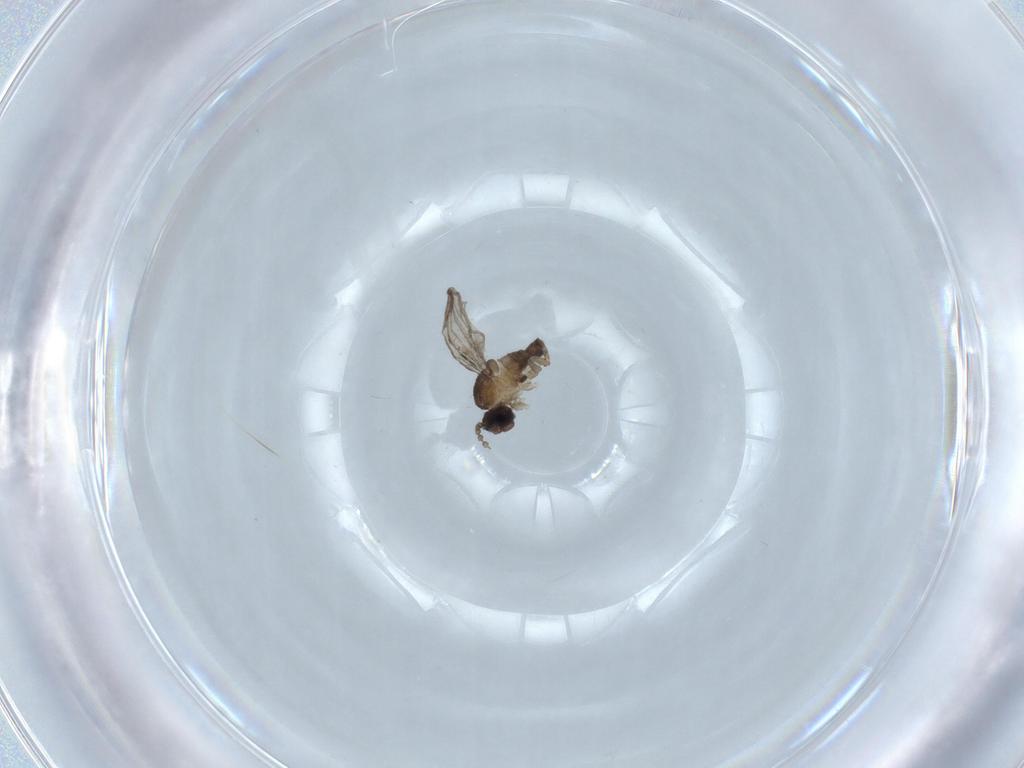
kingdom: Animalia
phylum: Arthropoda
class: Insecta
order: Diptera
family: Cecidomyiidae
